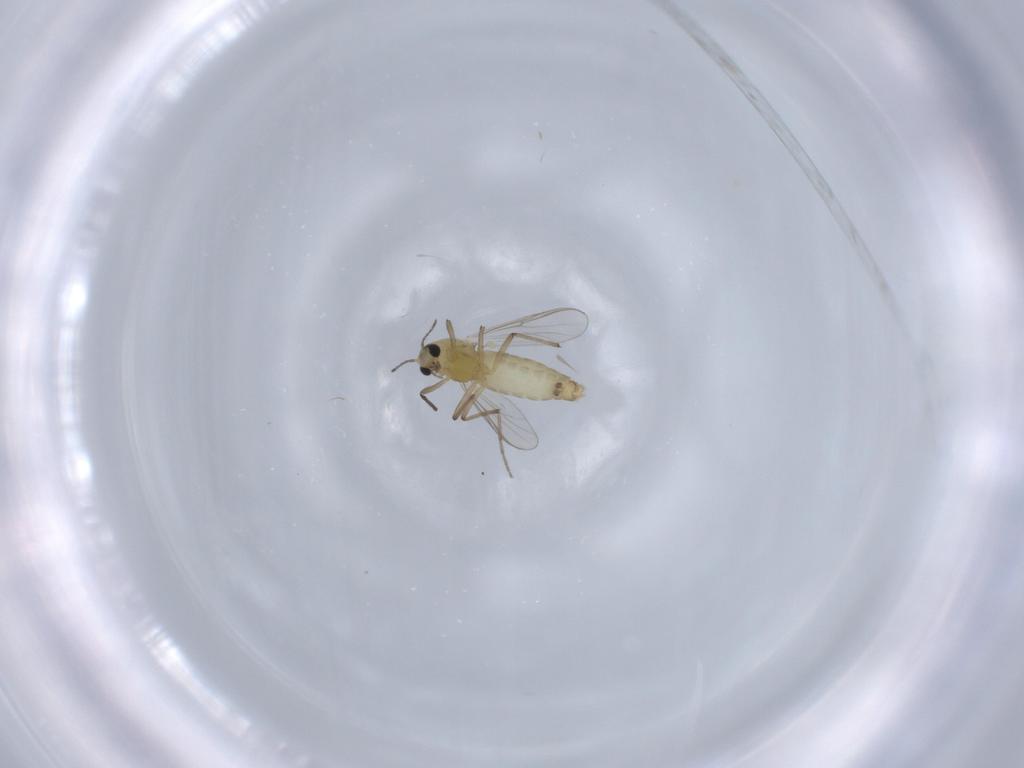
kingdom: Animalia
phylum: Arthropoda
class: Insecta
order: Diptera
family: Chironomidae
